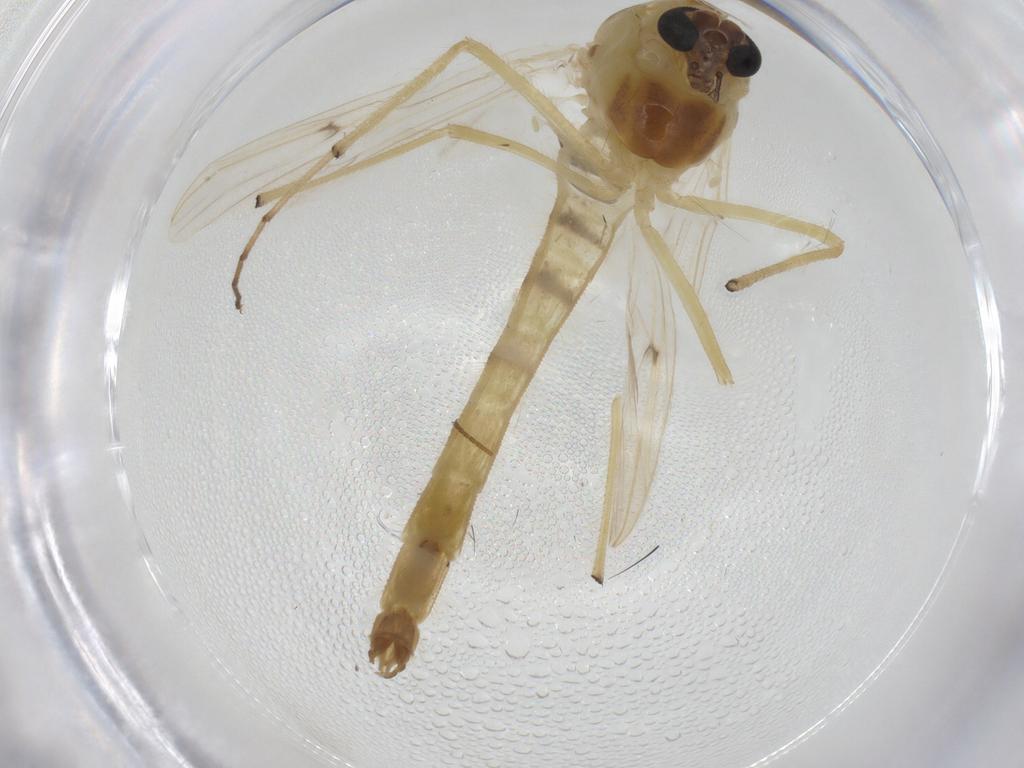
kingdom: Animalia
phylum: Arthropoda
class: Insecta
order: Diptera
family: Chironomidae
